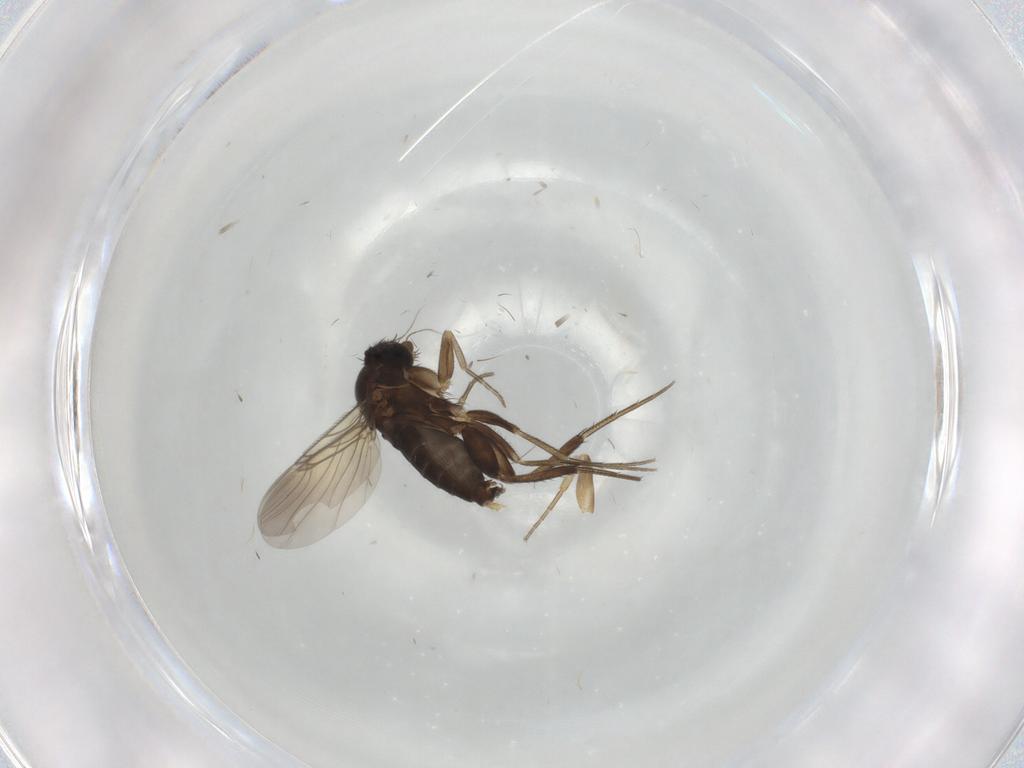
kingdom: Animalia
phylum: Arthropoda
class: Insecta
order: Diptera
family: Phoridae
